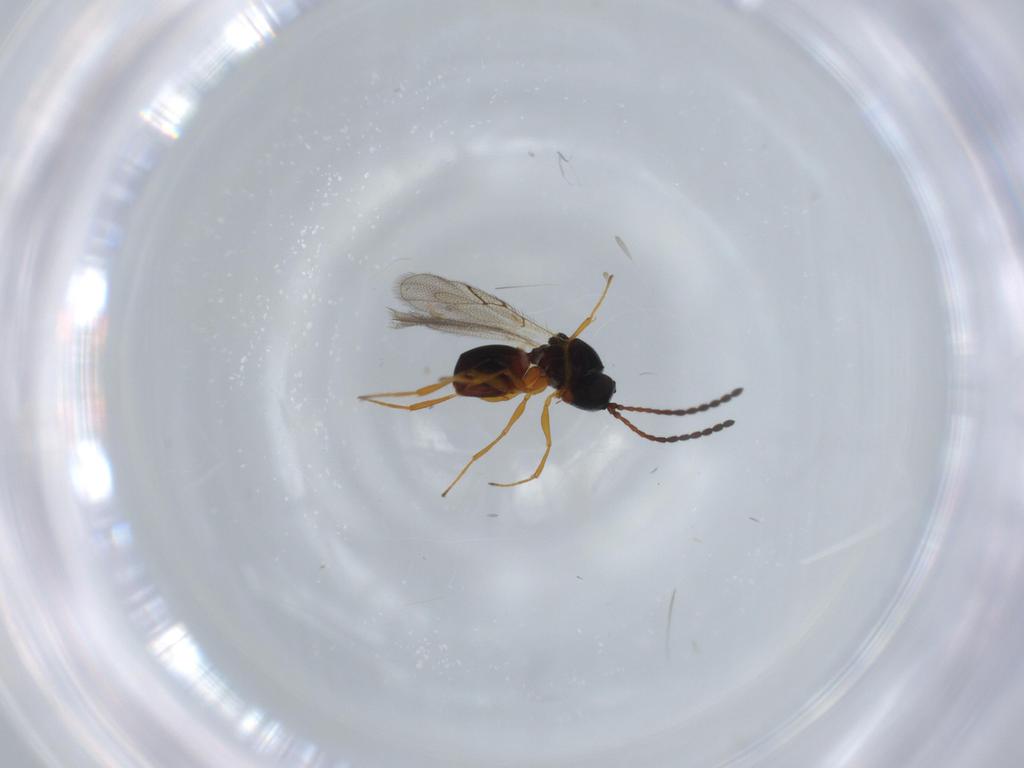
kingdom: Animalia
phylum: Arthropoda
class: Insecta
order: Hymenoptera
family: Figitidae
